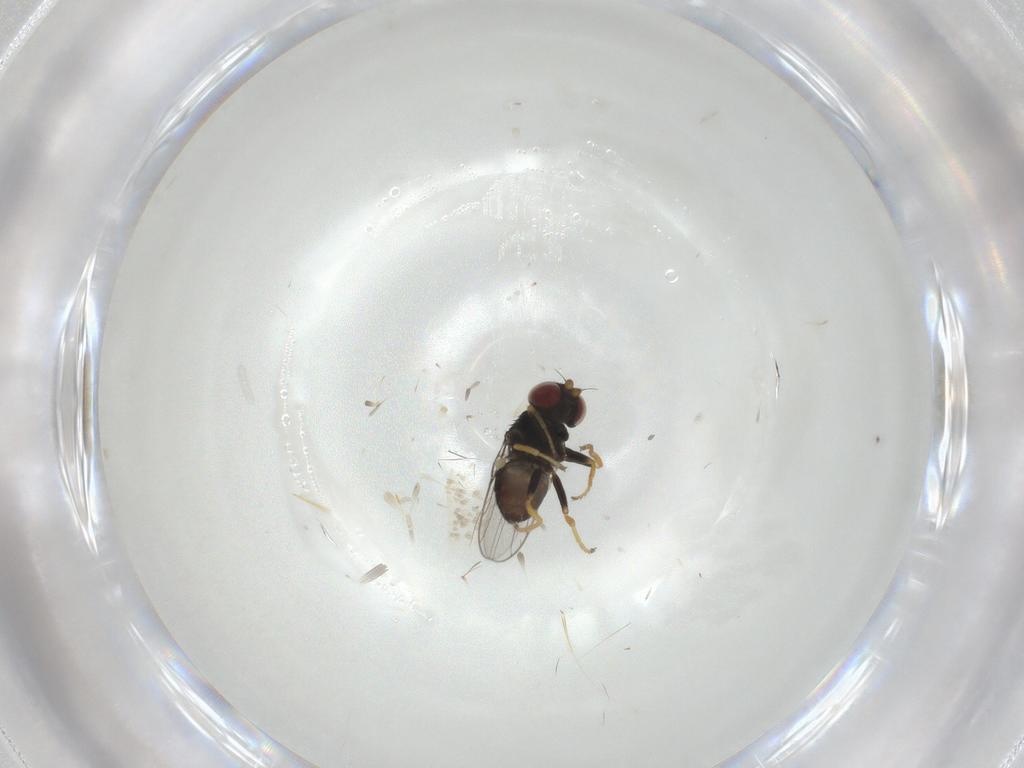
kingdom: Animalia
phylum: Arthropoda
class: Insecta
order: Diptera
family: Chloropidae
